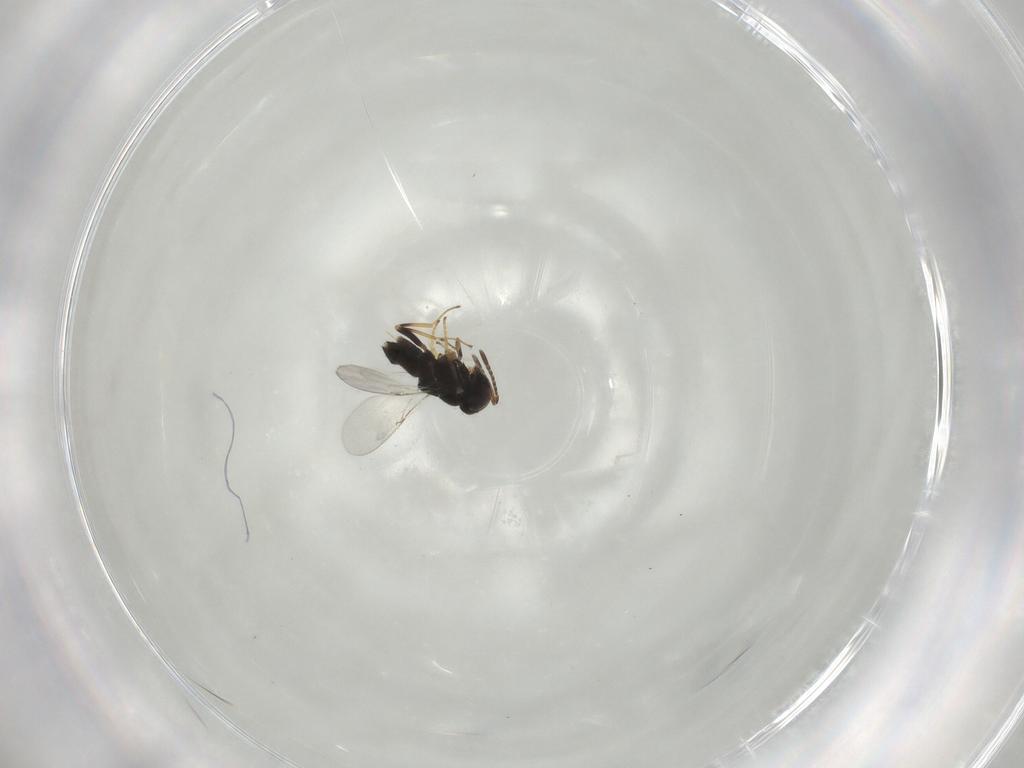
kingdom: Animalia
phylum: Arthropoda
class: Insecta
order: Hymenoptera
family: Encyrtidae
